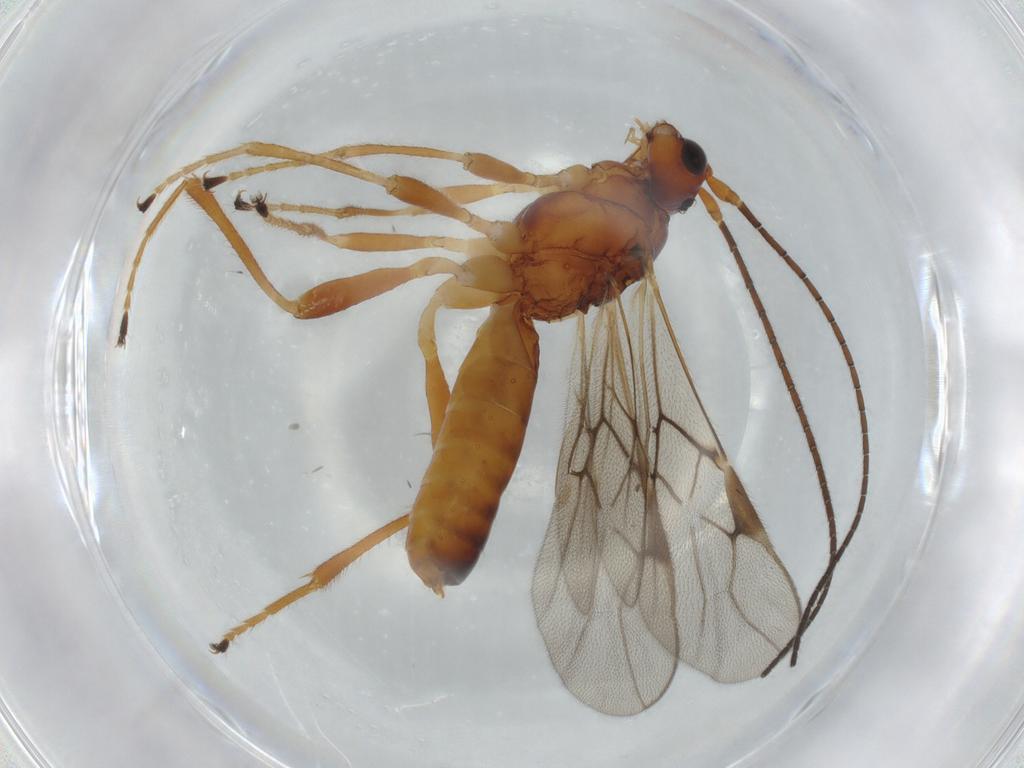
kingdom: Animalia
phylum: Arthropoda
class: Insecta
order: Hymenoptera
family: Braconidae
